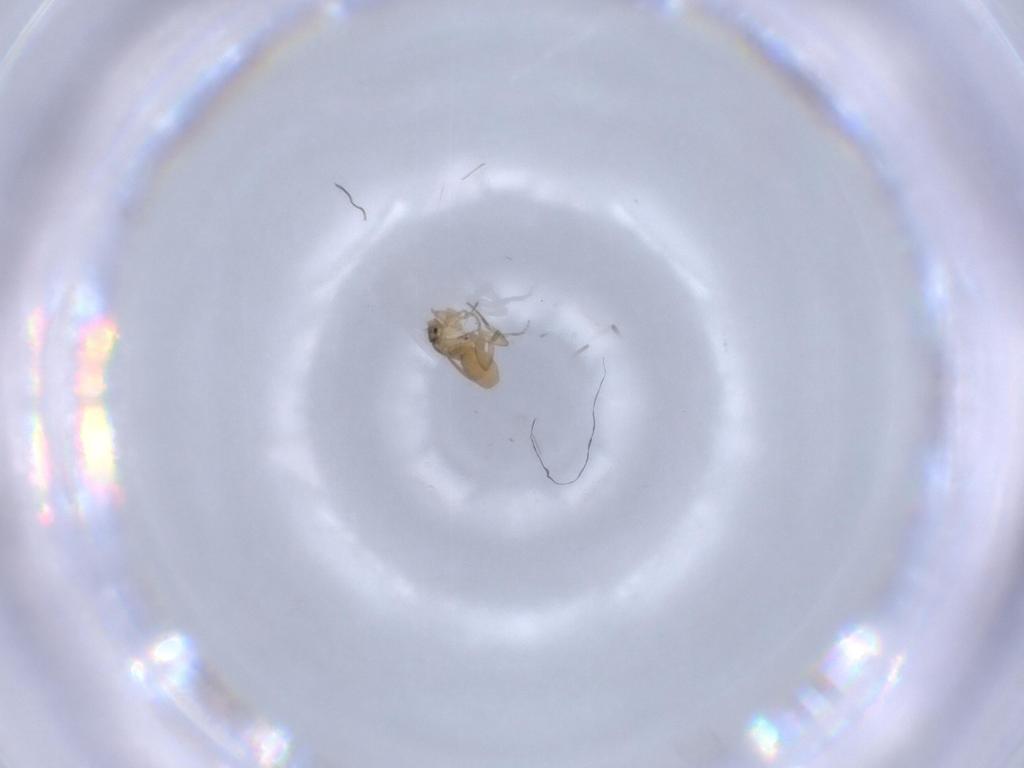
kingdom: Animalia
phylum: Arthropoda
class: Insecta
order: Diptera
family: Phoridae
